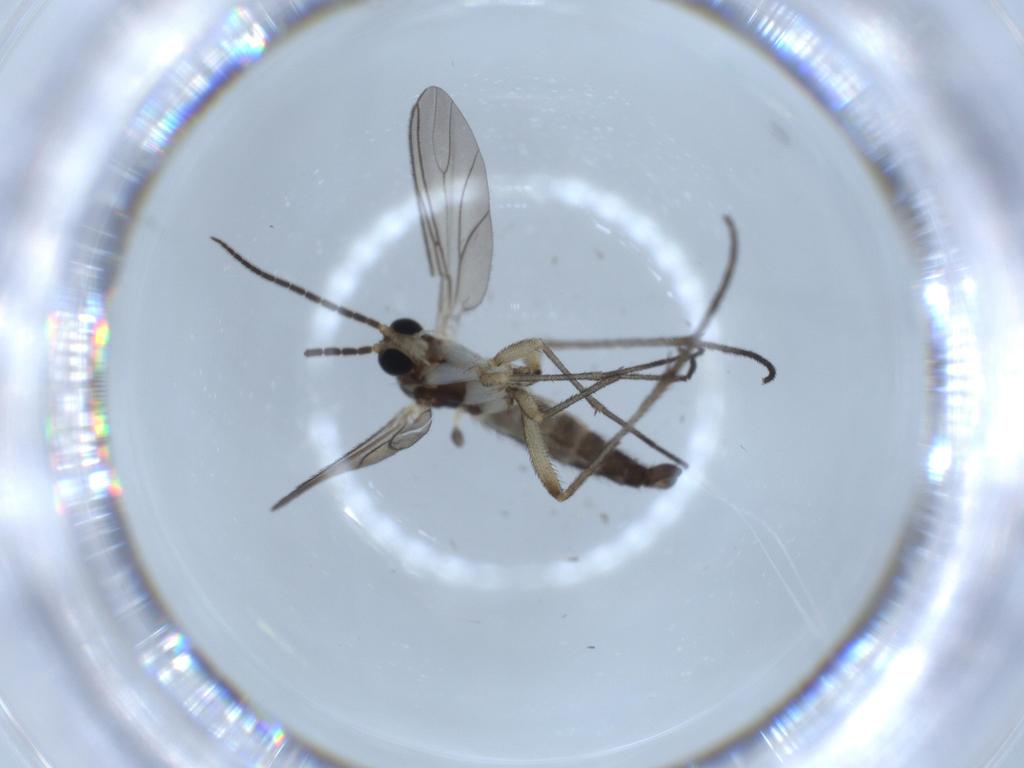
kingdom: Animalia
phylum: Arthropoda
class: Insecta
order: Diptera
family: Sciaridae
